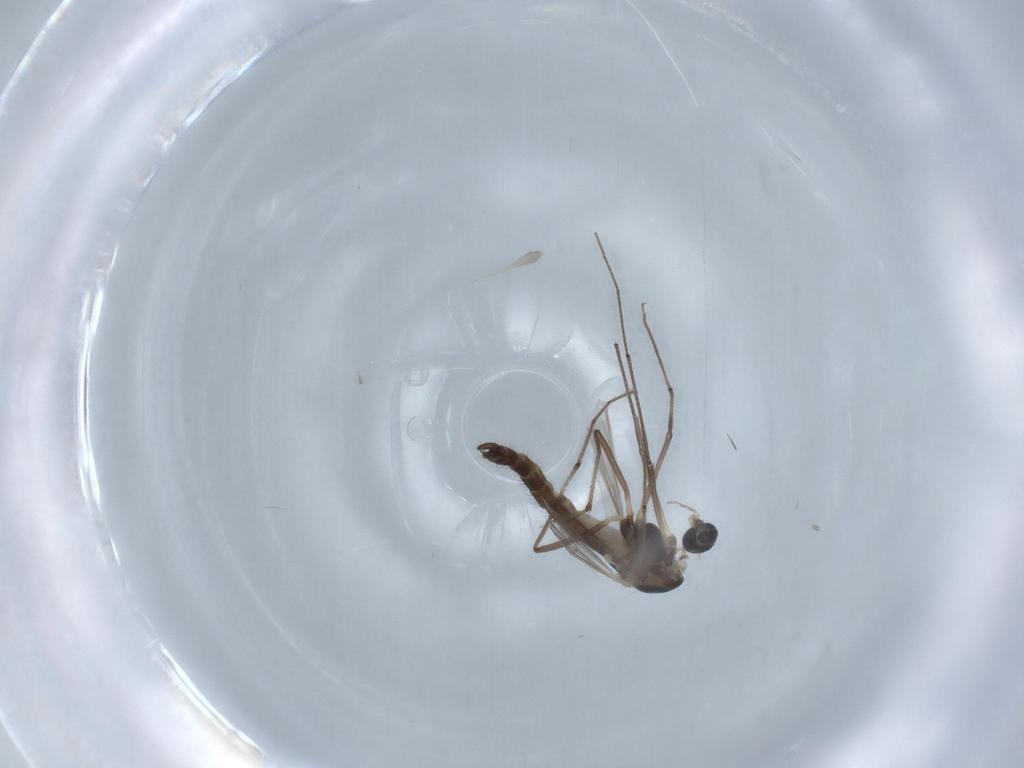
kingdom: Animalia
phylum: Arthropoda
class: Insecta
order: Diptera
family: Chironomidae
